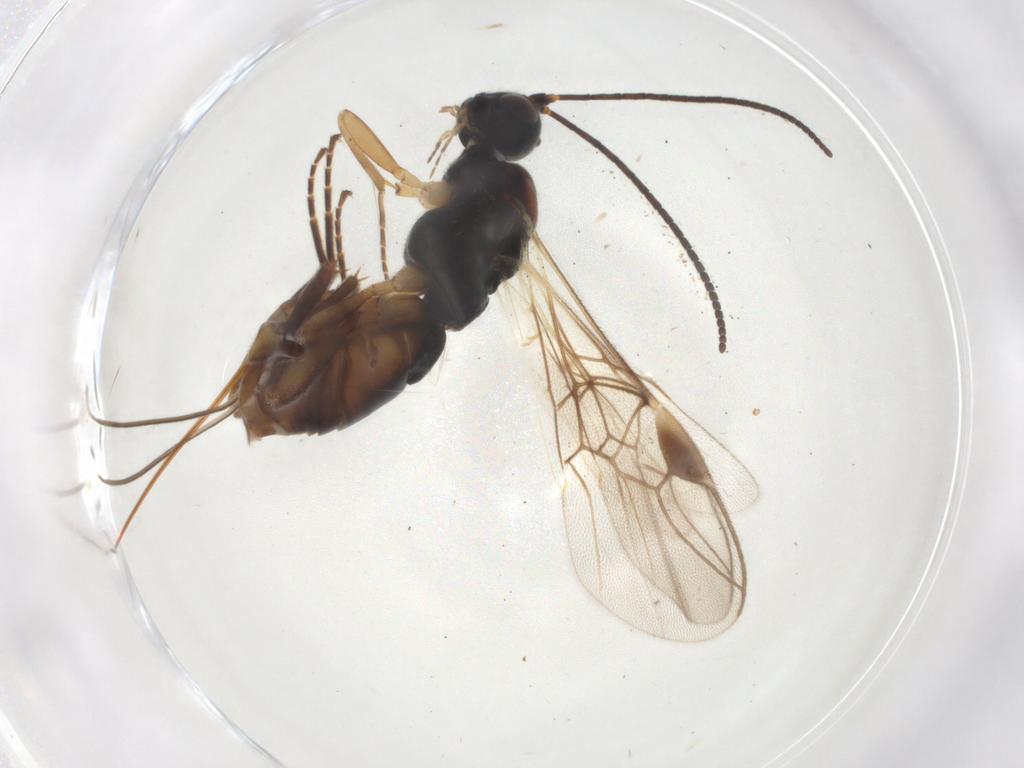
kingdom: Animalia
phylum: Arthropoda
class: Insecta
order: Hymenoptera
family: Braconidae
